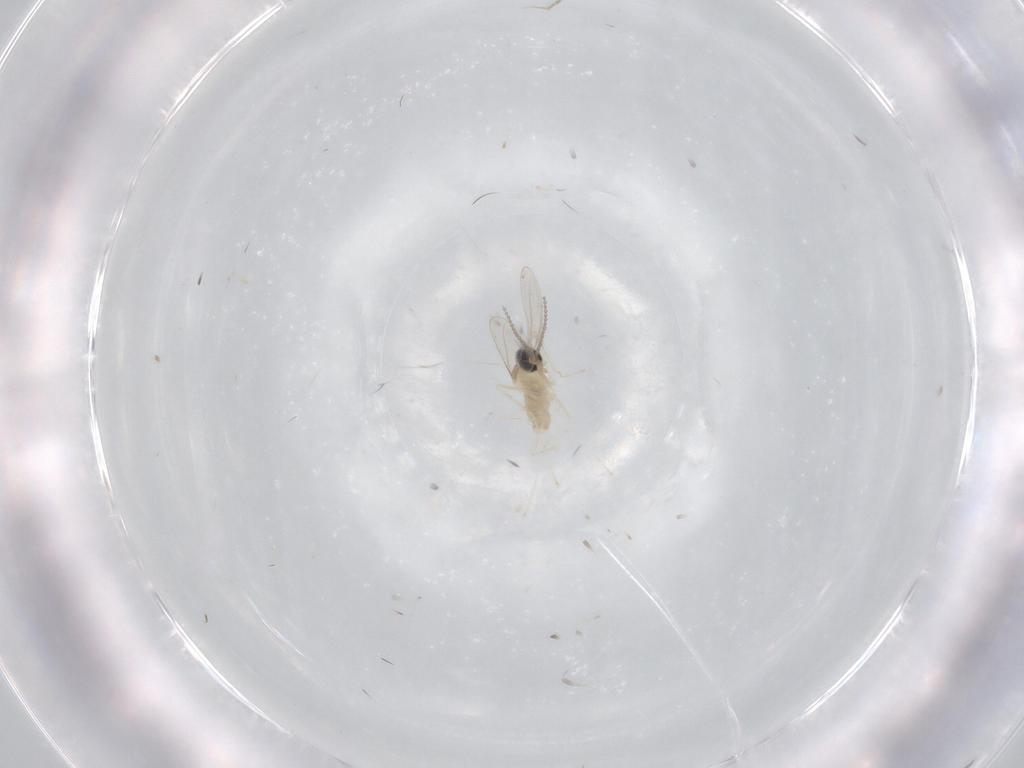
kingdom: Animalia
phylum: Arthropoda
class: Insecta
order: Diptera
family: Cecidomyiidae
